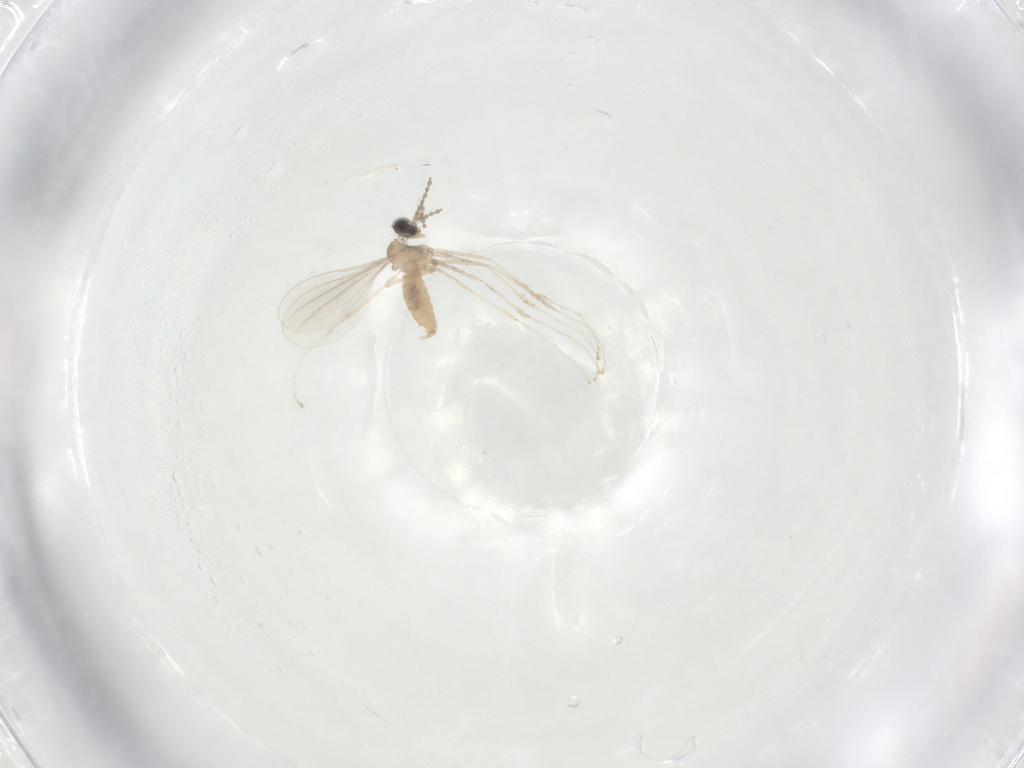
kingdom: Animalia
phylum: Arthropoda
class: Insecta
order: Diptera
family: Cecidomyiidae
